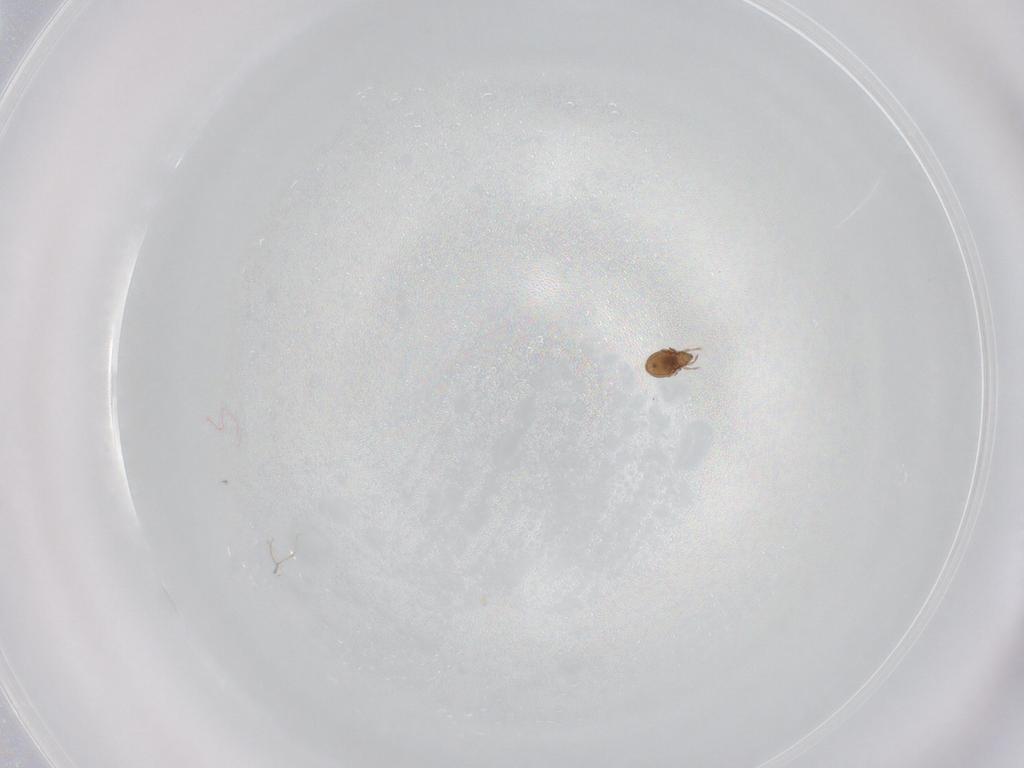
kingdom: Animalia
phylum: Arthropoda
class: Arachnida
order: Sarcoptiformes
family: Oribatulidae
